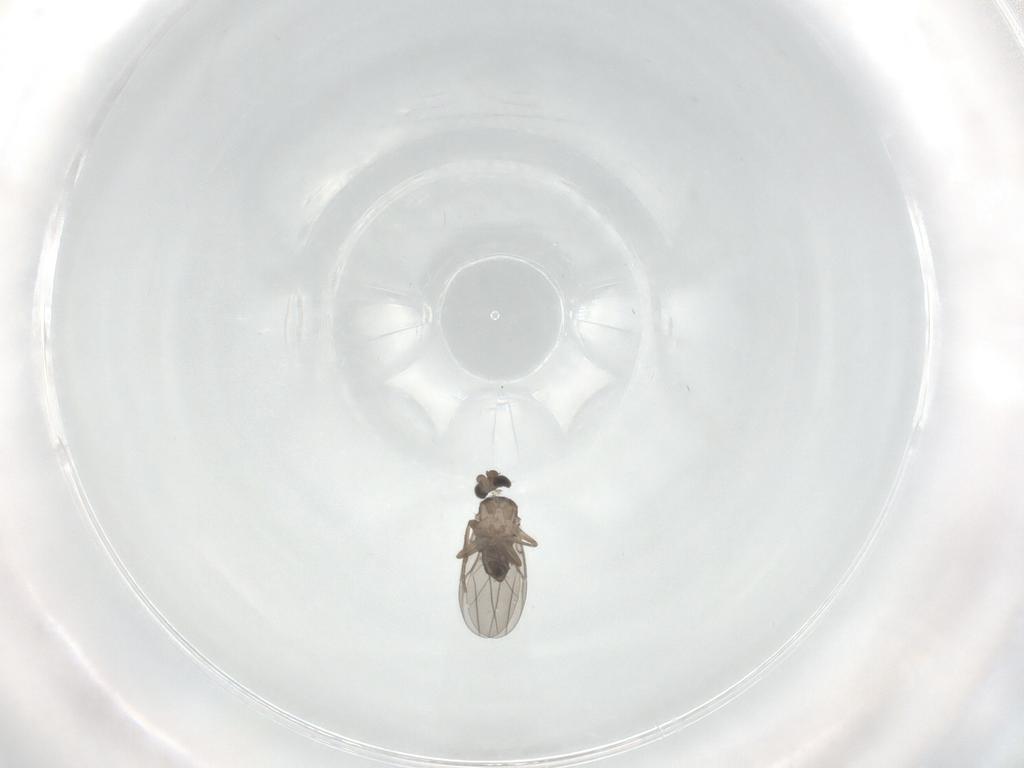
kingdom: Animalia
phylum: Arthropoda
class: Insecta
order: Diptera
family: Phoridae
